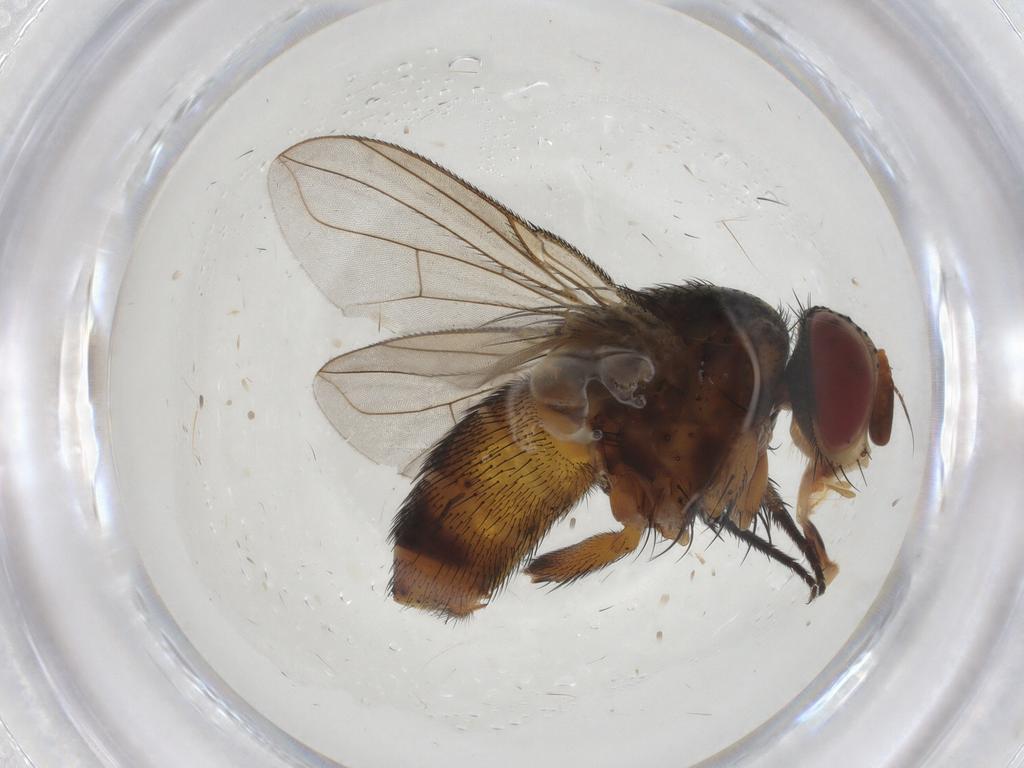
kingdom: Animalia
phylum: Arthropoda
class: Insecta
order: Diptera
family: Tachinidae
